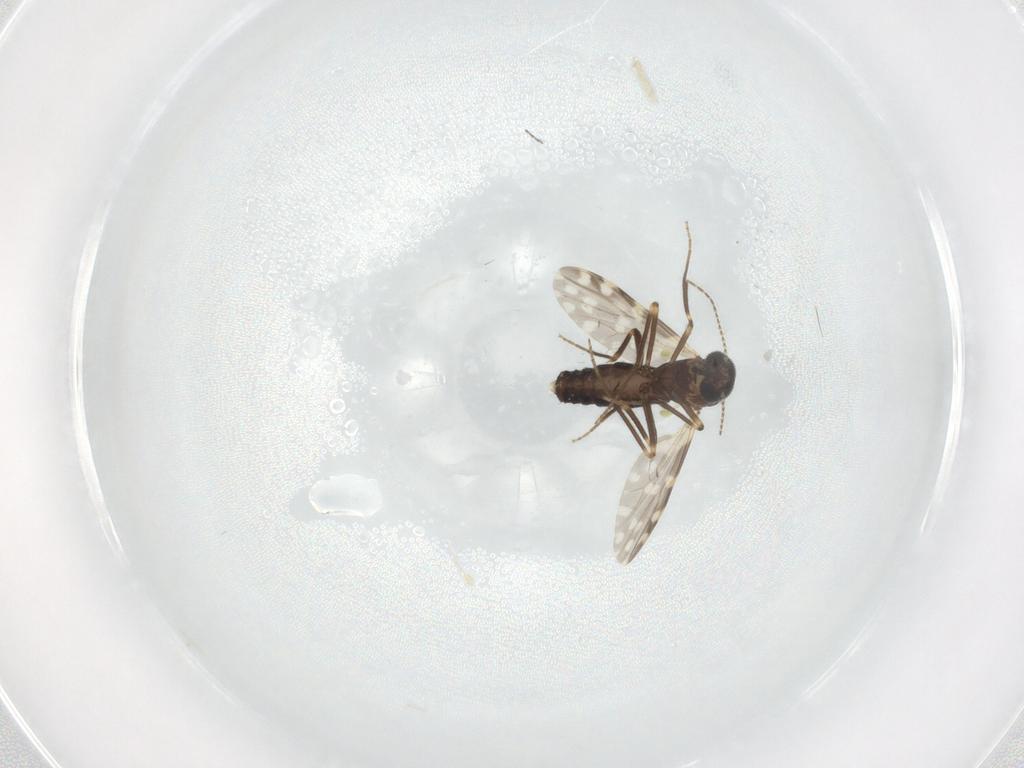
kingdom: Animalia
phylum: Arthropoda
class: Insecta
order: Diptera
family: Ceratopogonidae
